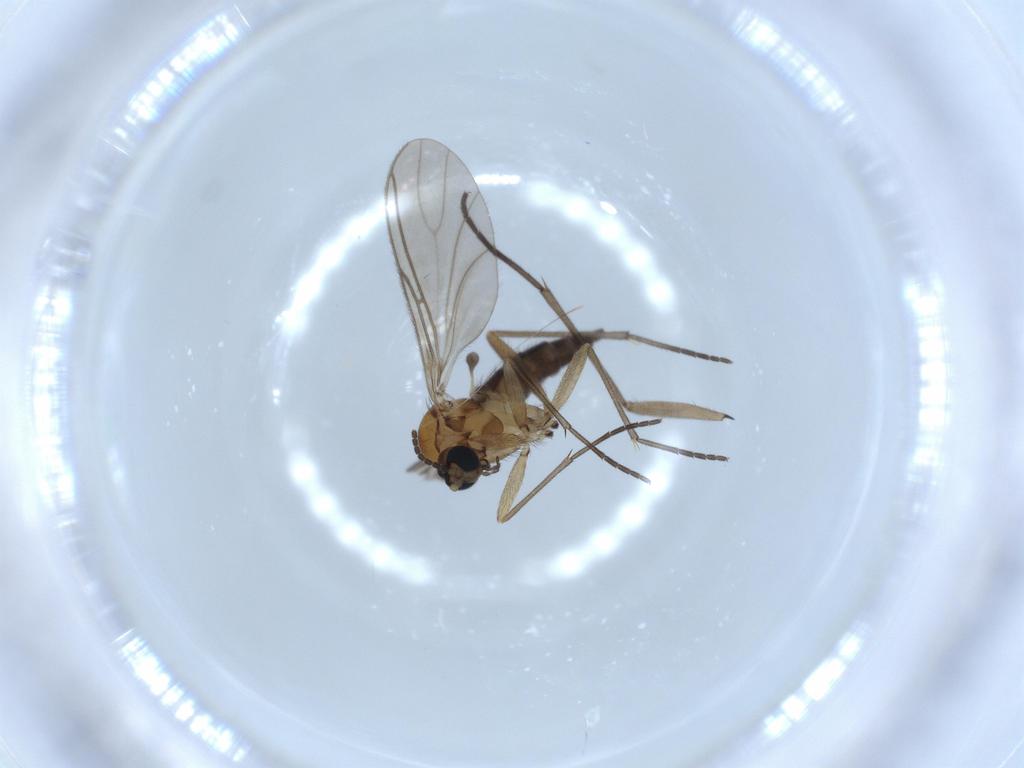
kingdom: Animalia
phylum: Arthropoda
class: Insecta
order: Diptera
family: Sciaridae
